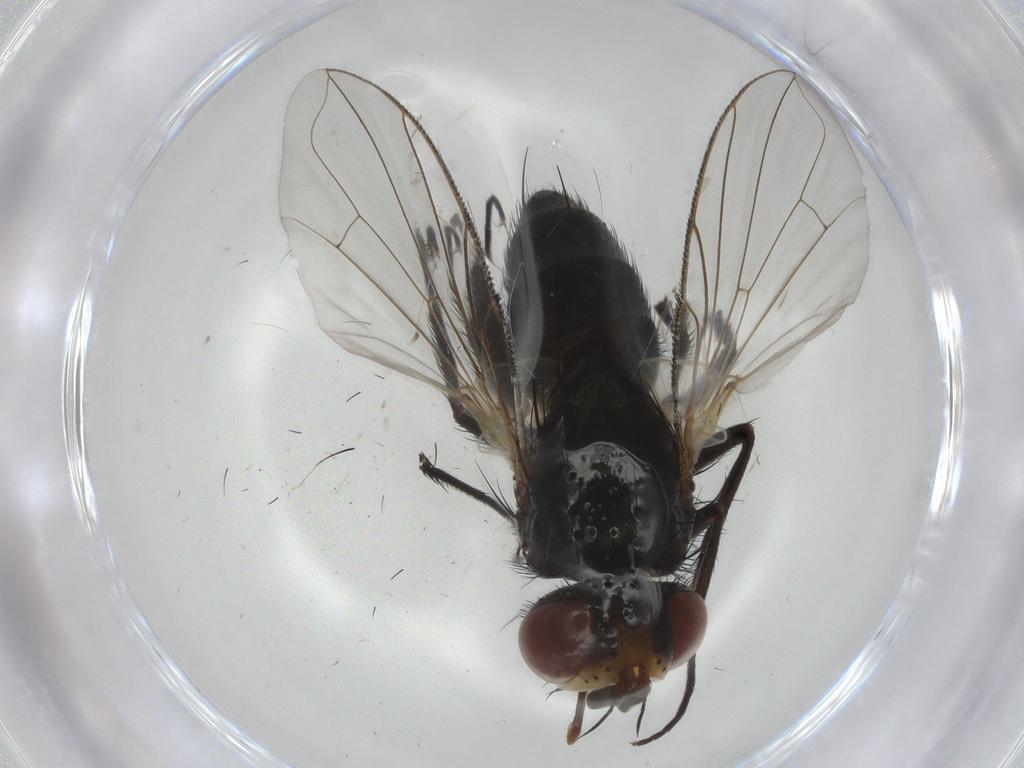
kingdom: Animalia
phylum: Arthropoda
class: Insecta
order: Diptera
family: Tachinidae
